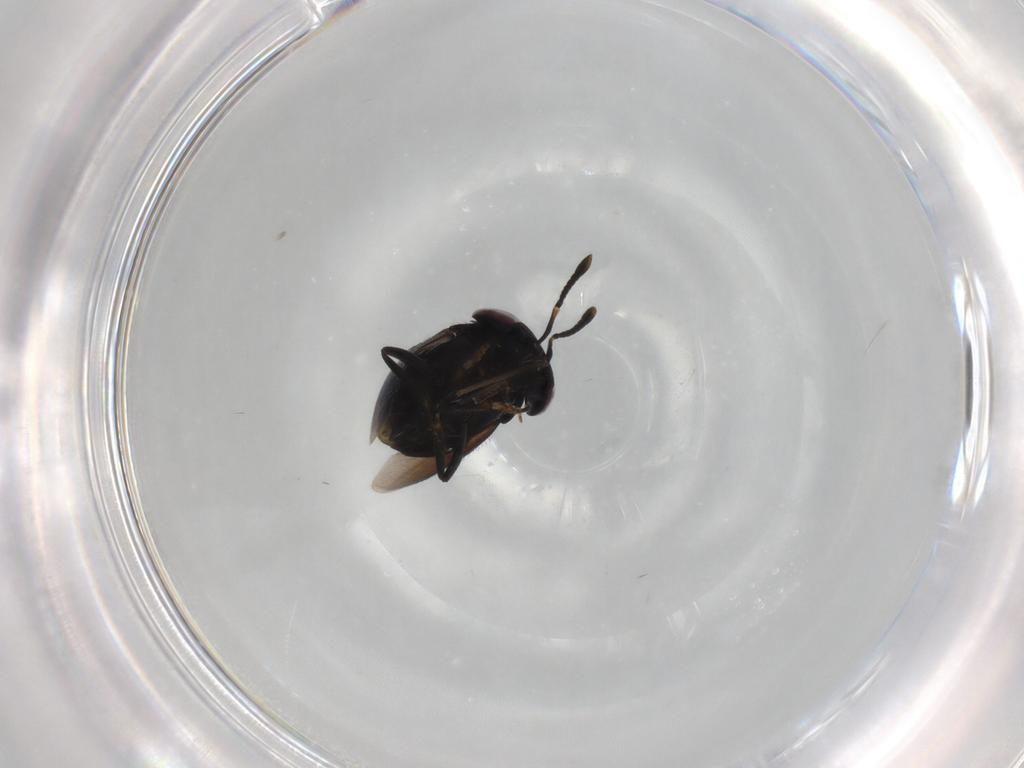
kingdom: Animalia
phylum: Arthropoda
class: Insecta
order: Hymenoptera
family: Encyrtidae
